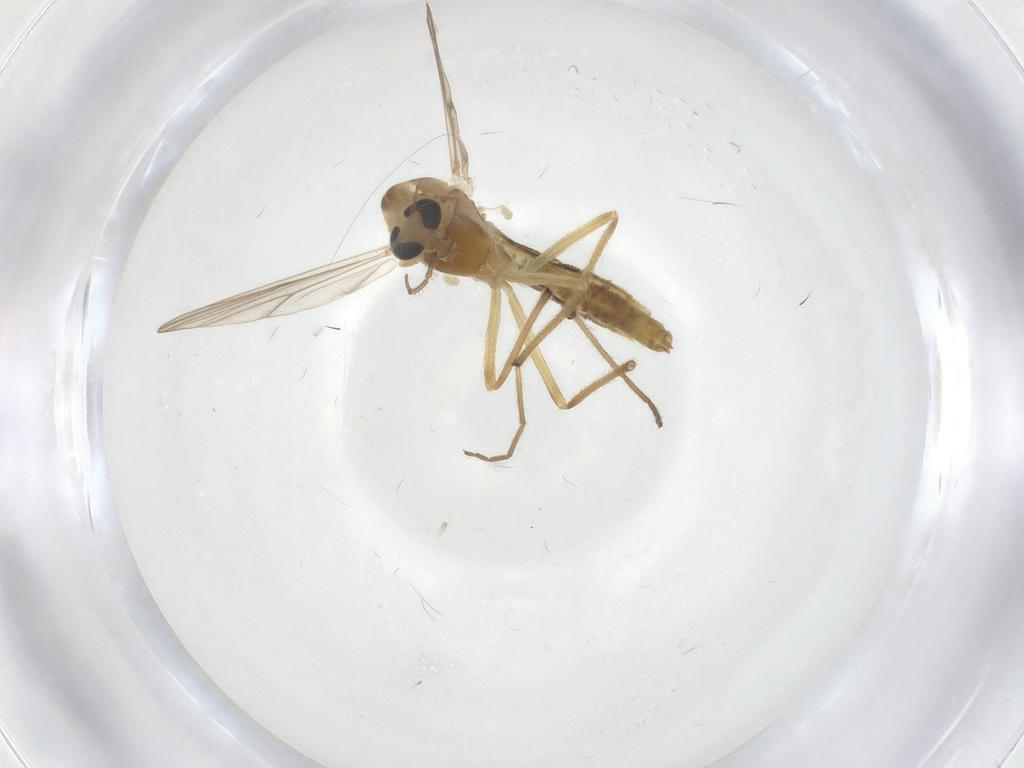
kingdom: Animalia
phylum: Arthropoda
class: Insecta
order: Diptera
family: Chironomidae
